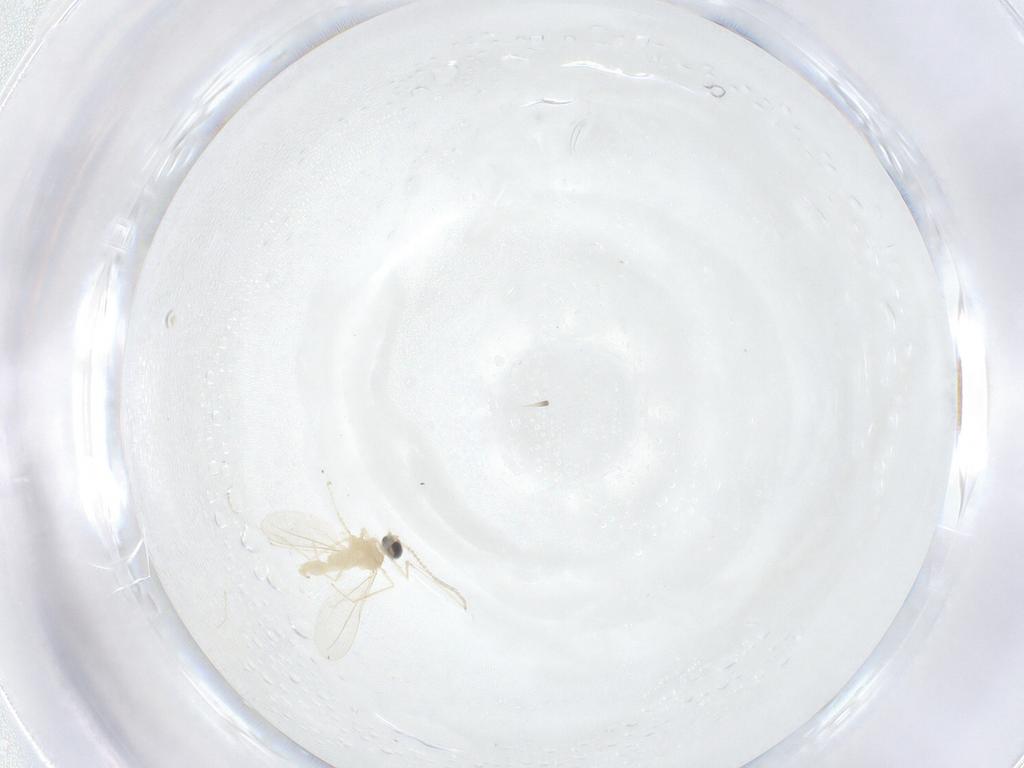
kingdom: Animalia
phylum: Arthropoda
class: Insecta
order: Diptera
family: Cecidomyiidae
